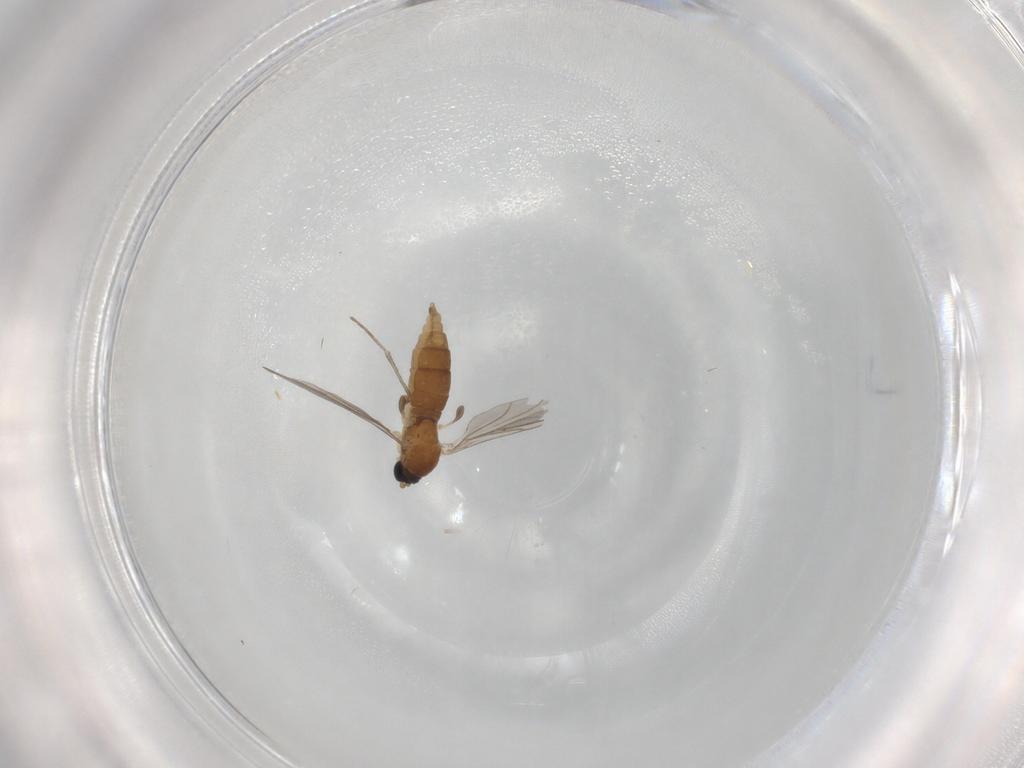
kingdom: Animalia
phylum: Arthropoda
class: Insecta
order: Diptera
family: Sciaridae
